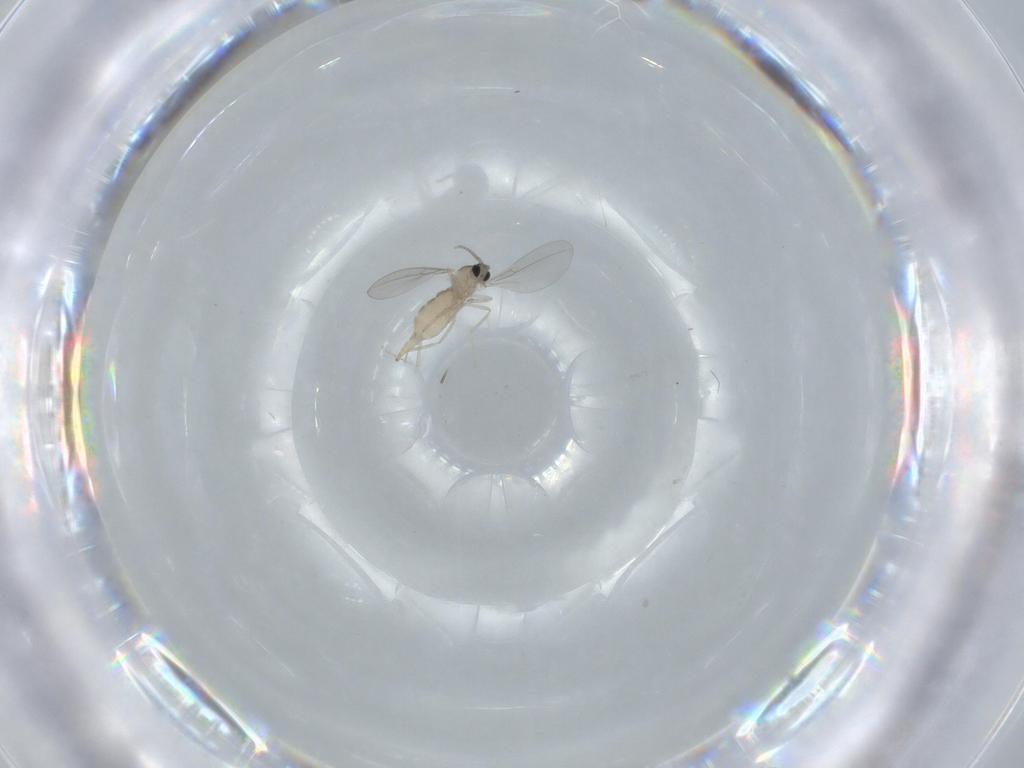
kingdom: Animalia
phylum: Arthropoda
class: Insecta
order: Diptera
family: Cecidomyiidae
